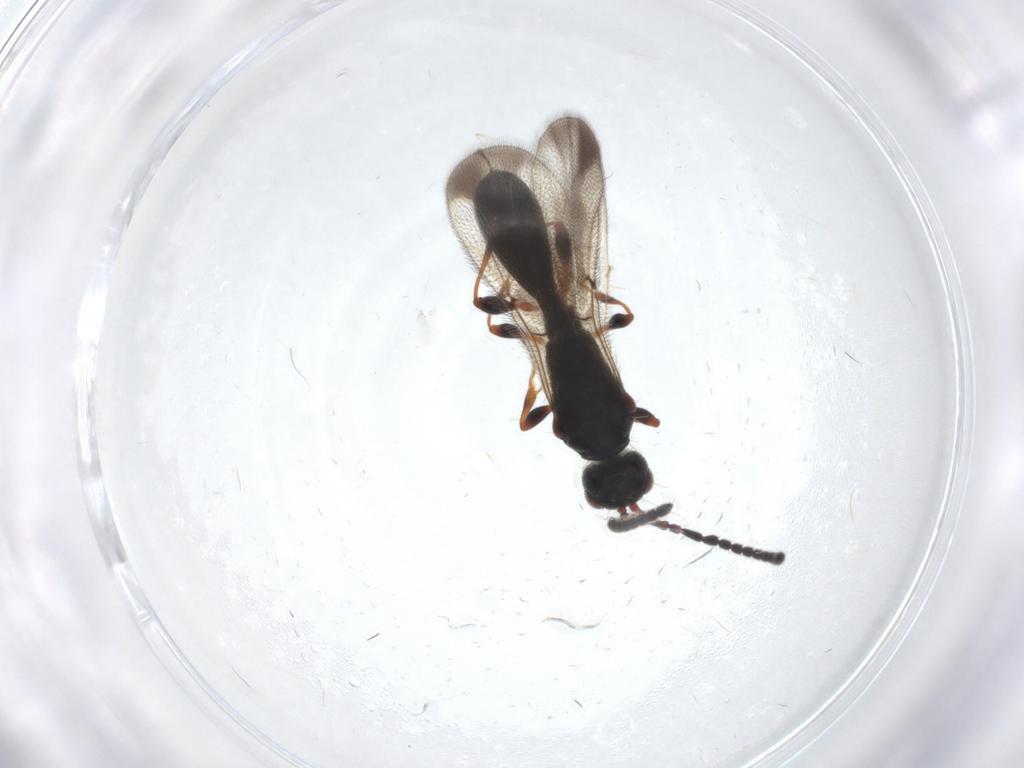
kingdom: Animalia
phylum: Arthropoda
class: Insecta
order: Hymenoptera
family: Diapriidae
